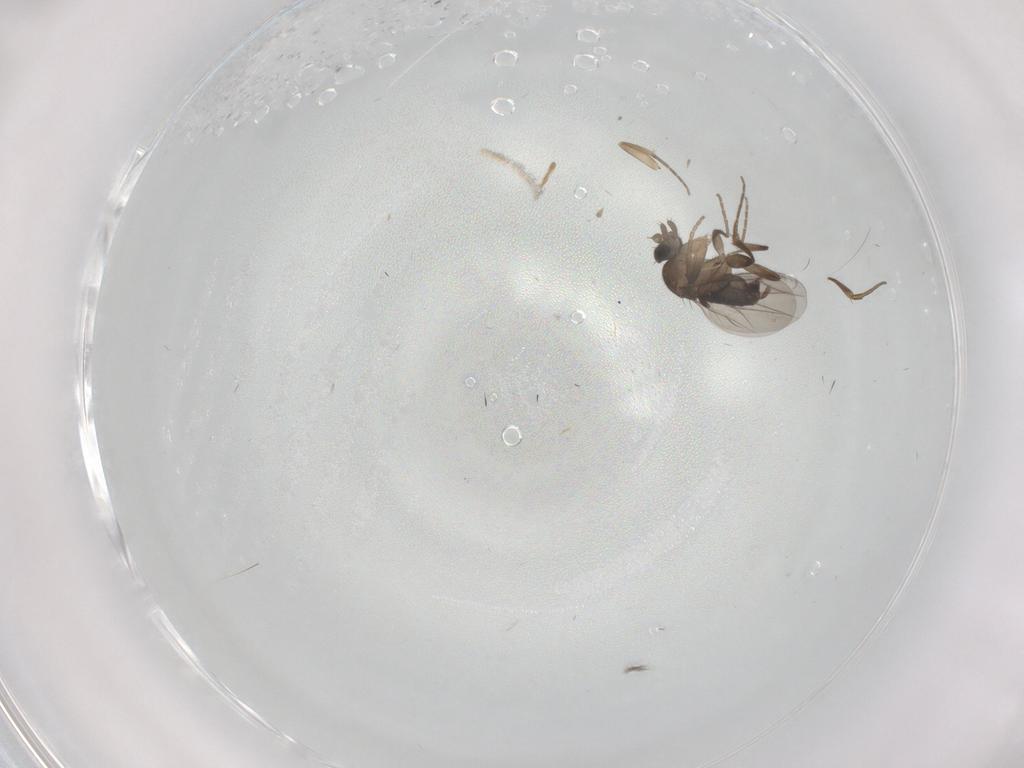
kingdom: Animalia
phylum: Arthropoda
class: Insecta
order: Diptera
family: Phoridae
